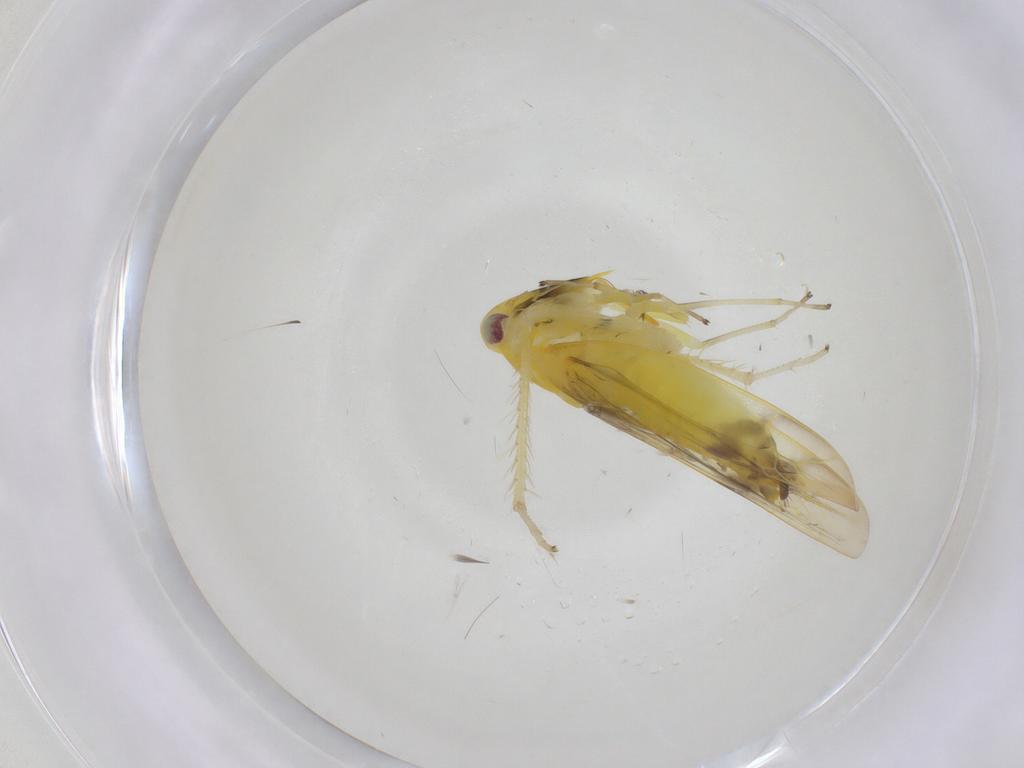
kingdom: Animalia
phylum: Arthropoda
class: Insecta
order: Hemiptera
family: Cicadellidae
